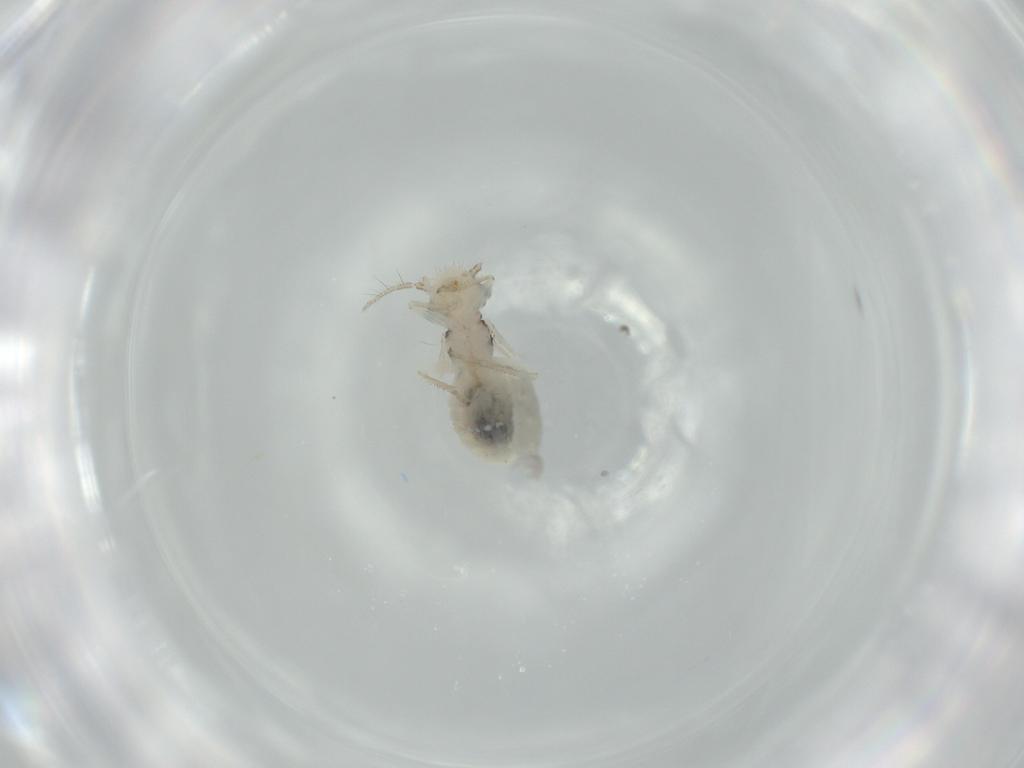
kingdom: Animalia
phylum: Arthropoda
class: Insecta
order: Psocodea
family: Pseudocaeciliidae
